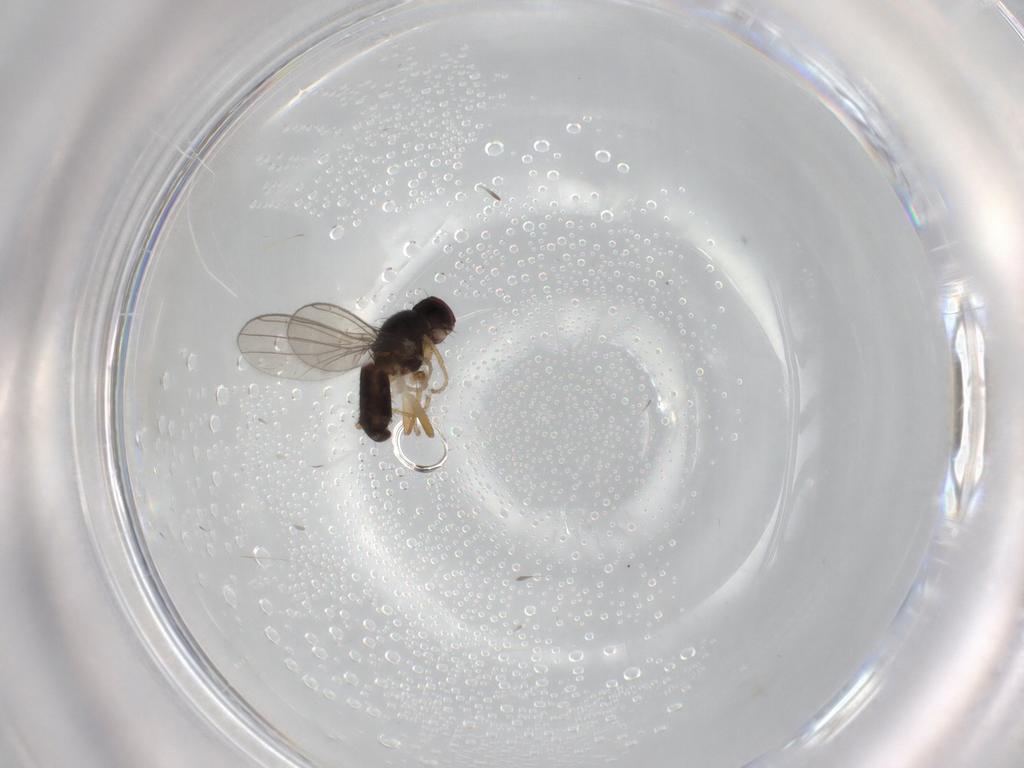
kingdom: Animalia
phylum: Arthropoda
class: Insecta
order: Diptera
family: Anthomyzidae
